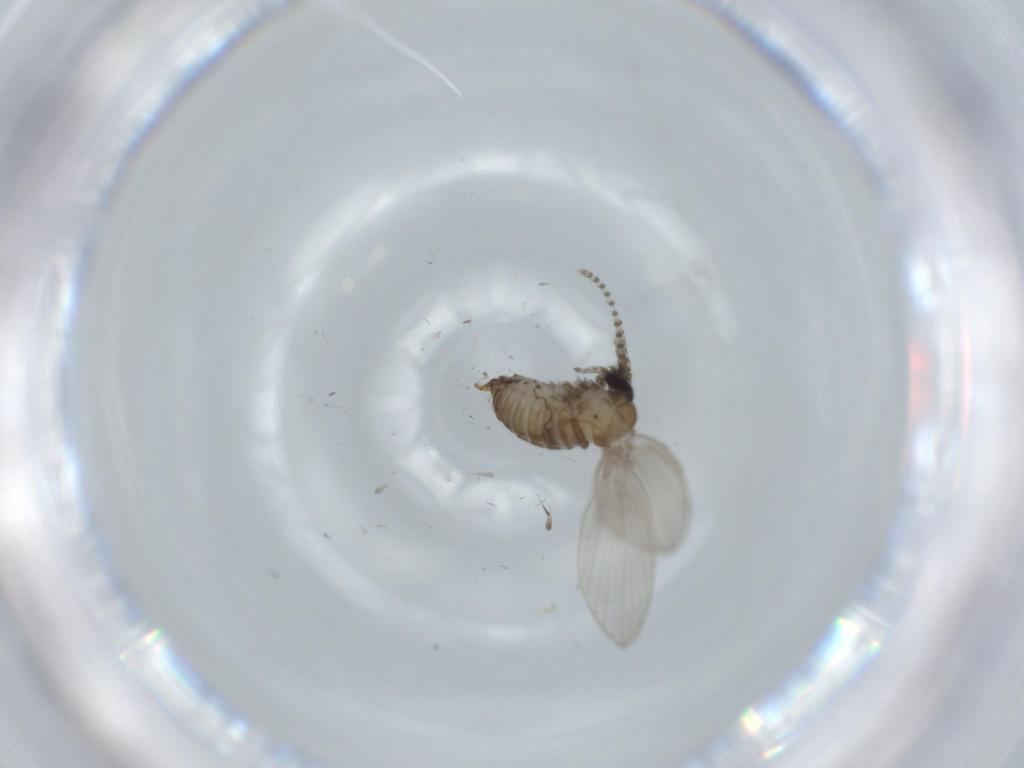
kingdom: Animalia
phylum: Arthropoda
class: Insecta
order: Diptera
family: Psychodidae
